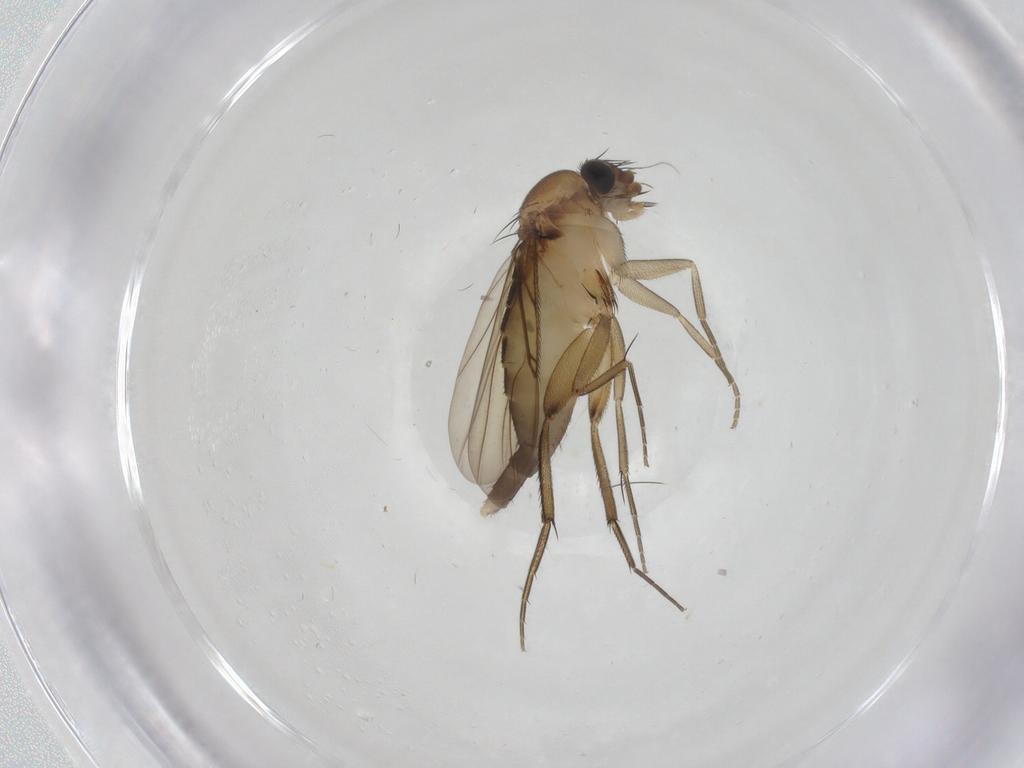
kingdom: Animalia
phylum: Arthropoda
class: Insecta
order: Diptera
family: Phoridae
